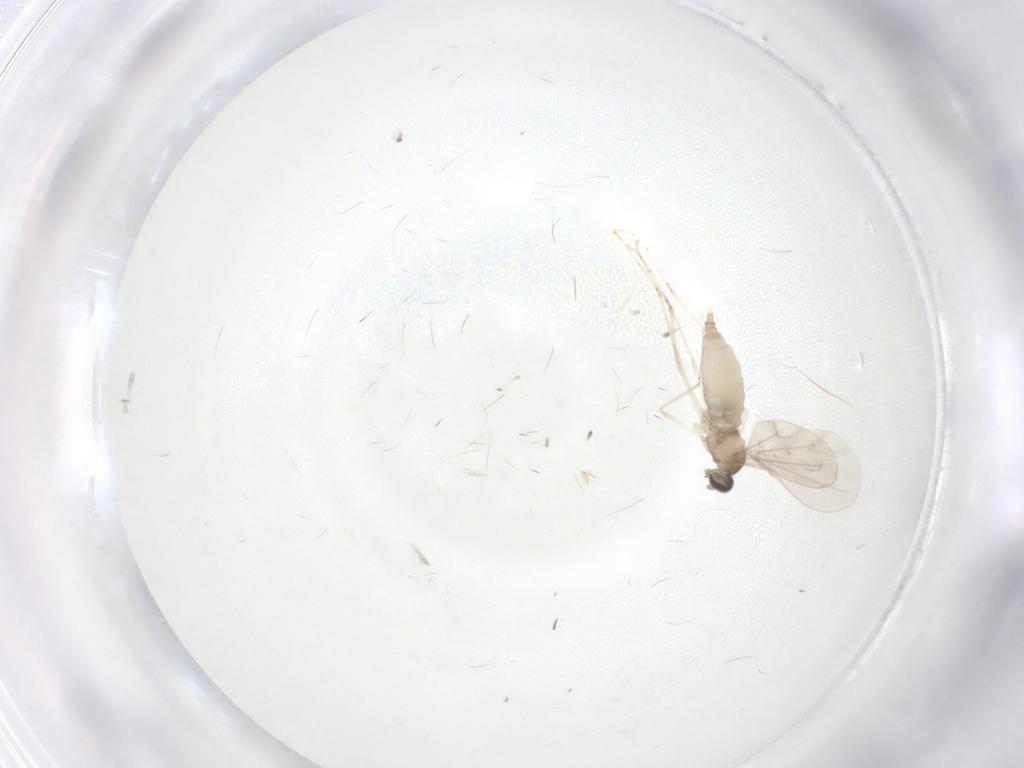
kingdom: Animalia
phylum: Arthropoda
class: Insecta
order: Diptera
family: Cecidomyiidae
